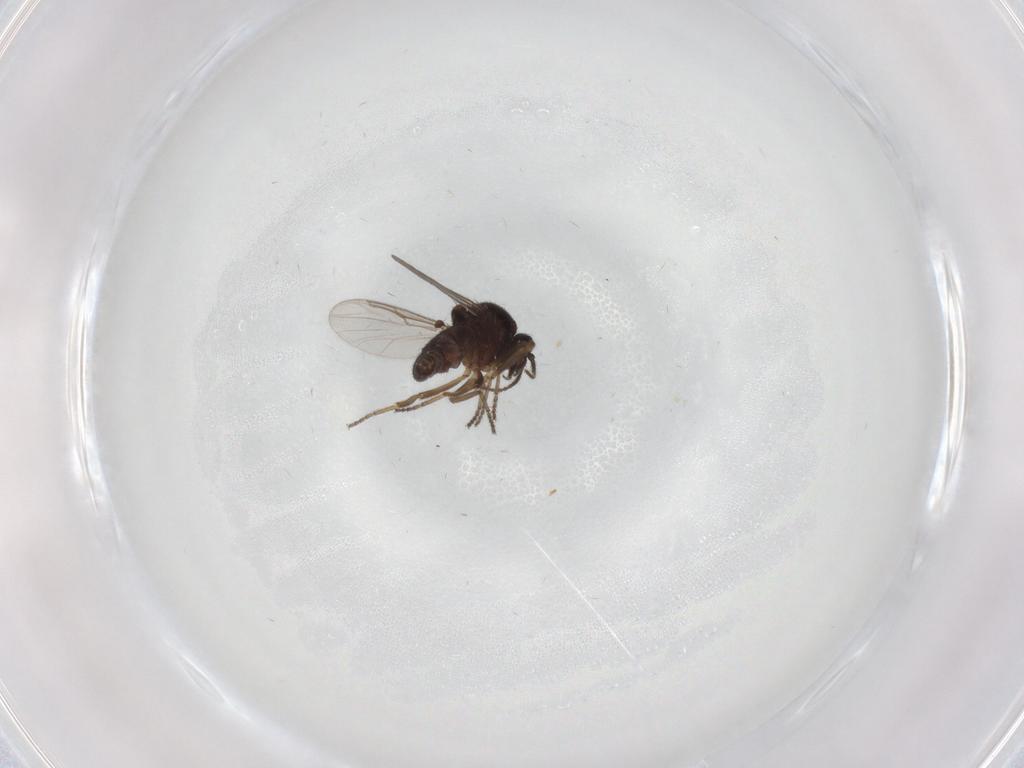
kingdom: Animalia
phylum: Arthropoda
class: Insecta
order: Diptera
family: Ceratopogonidae
